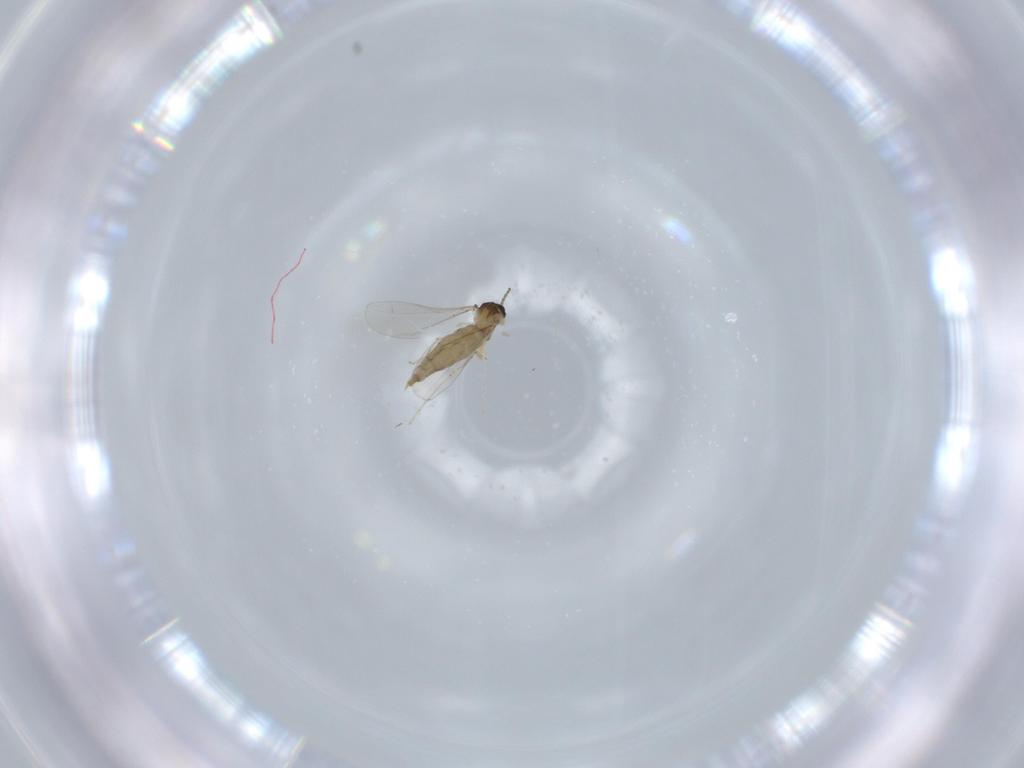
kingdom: Animalia
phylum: Arthropoda
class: Insecta
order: Diptera
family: Cecidomyiidae
